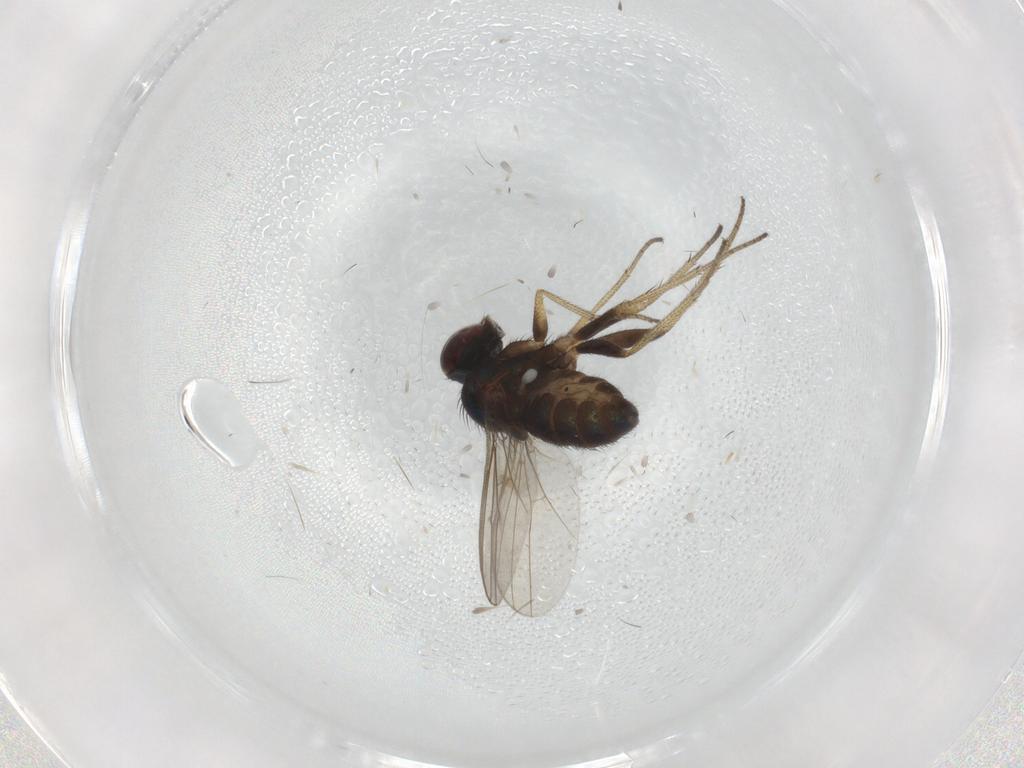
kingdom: Animalia
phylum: Arthropoda
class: Insecta
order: Diptera
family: Dolichopodidae
